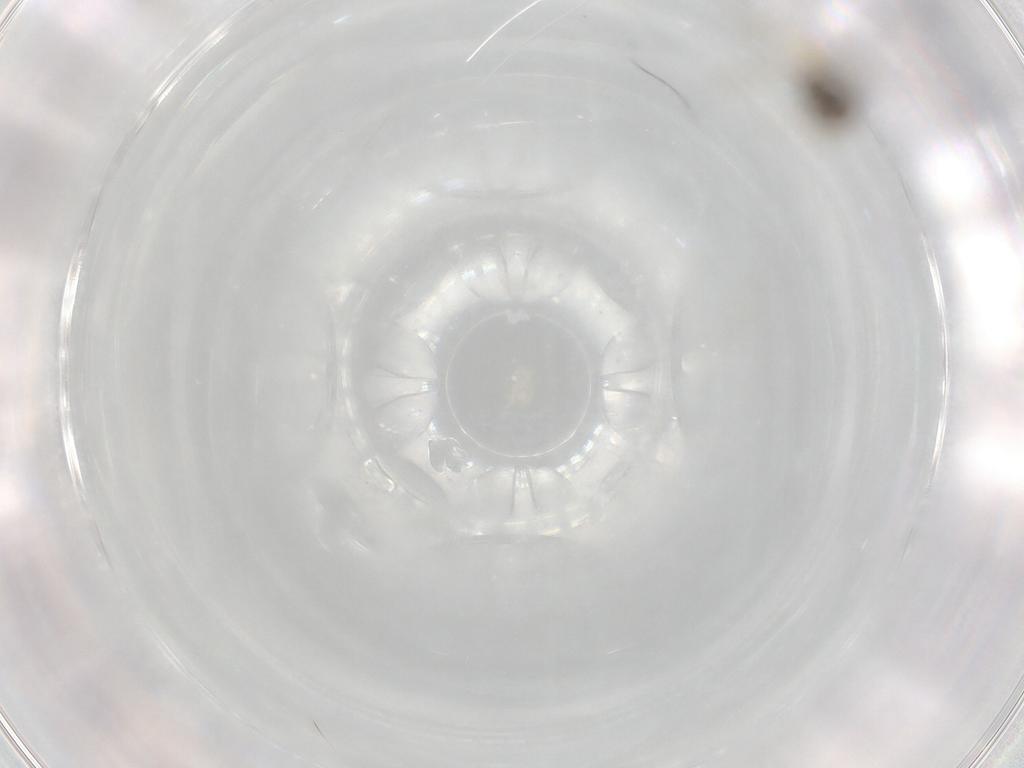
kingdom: Animalia
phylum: Arthropoda
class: Insecta
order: Diptera
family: Cecidomyiidae
